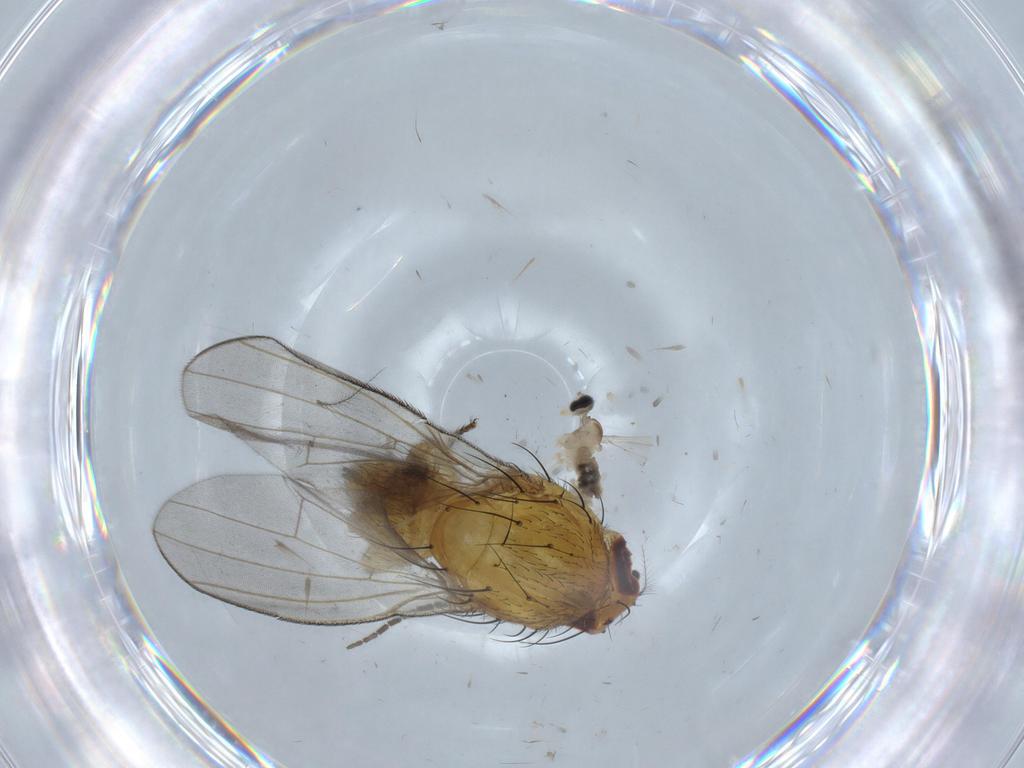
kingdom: Animalia
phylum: Arthropoda
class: Insecta
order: Diptera
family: Lauxaniidae
